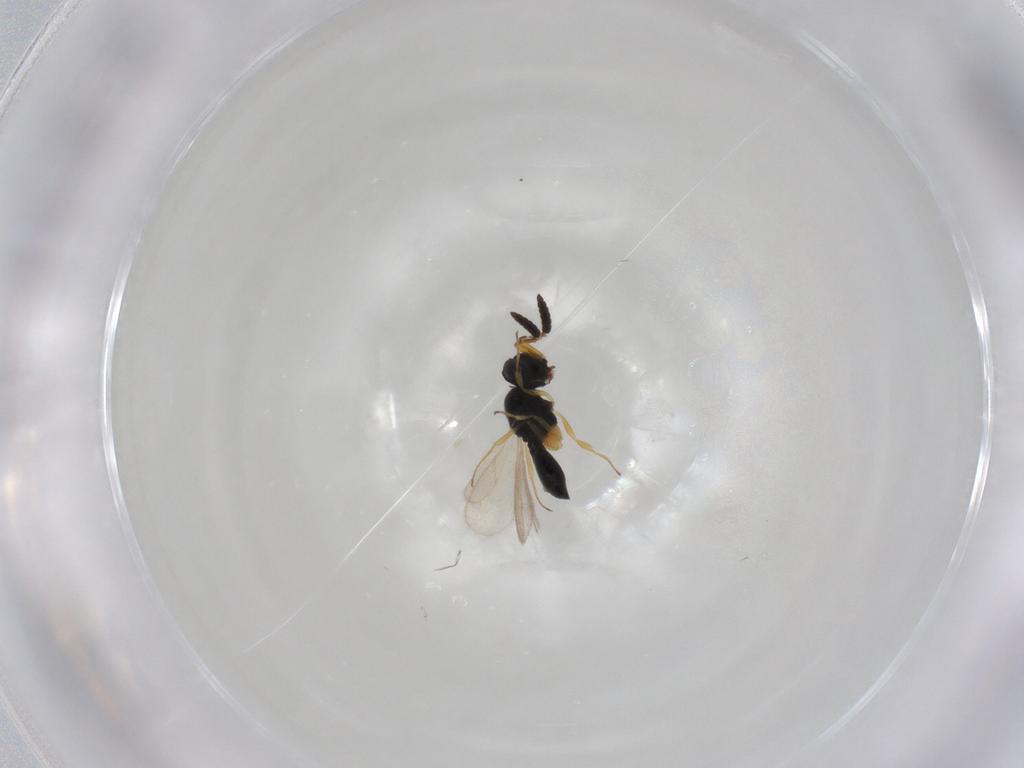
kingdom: Animalia
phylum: Arthropoda
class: Insecta
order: Hymenoptera
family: Scelionidae
